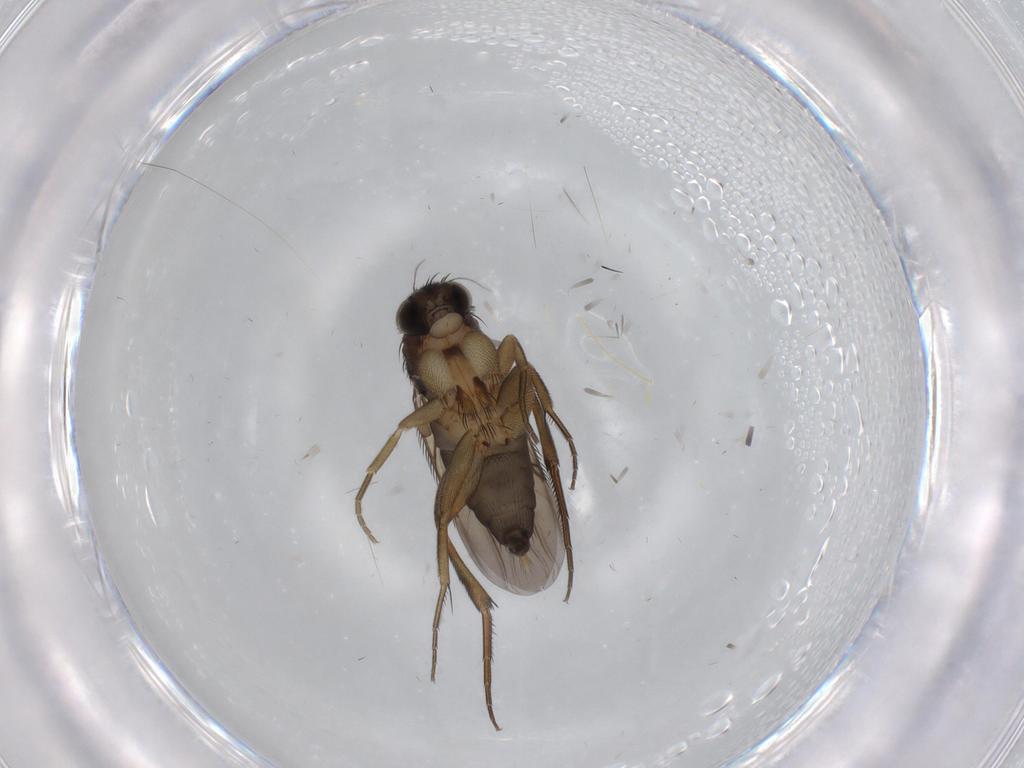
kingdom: Animalia
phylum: Arthropoda
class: Insecta
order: Diptera
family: Phoridae
